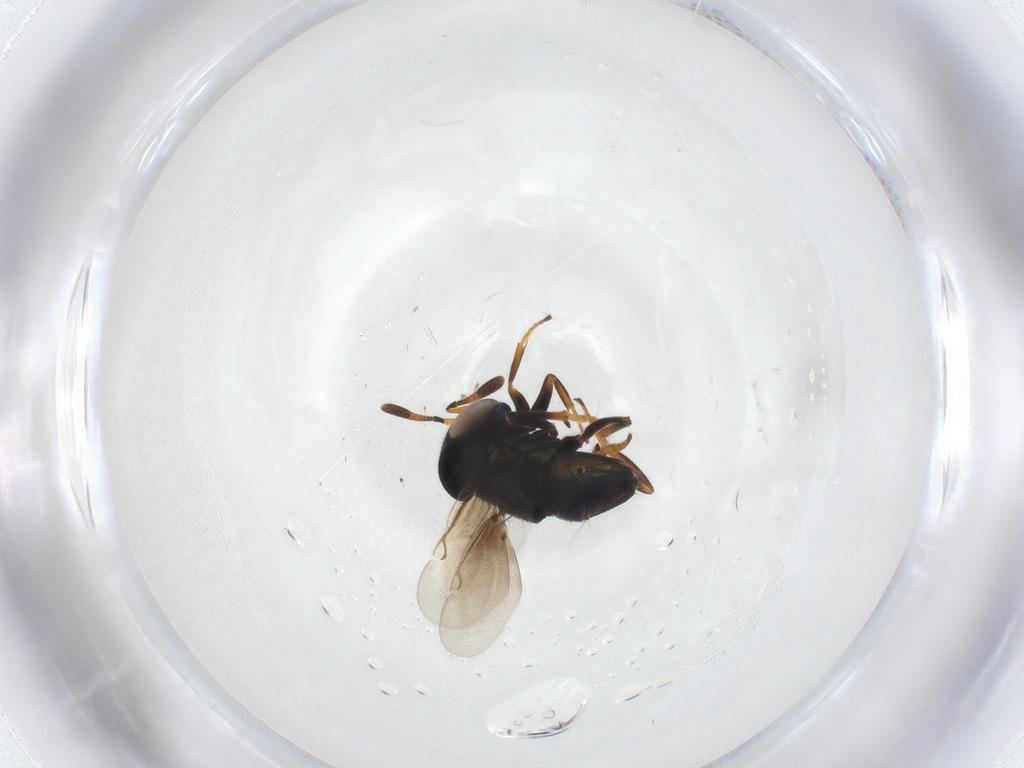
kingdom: Animalia
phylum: Arthropoda
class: Insecta
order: Hymenoptera
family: Encyrtidae
